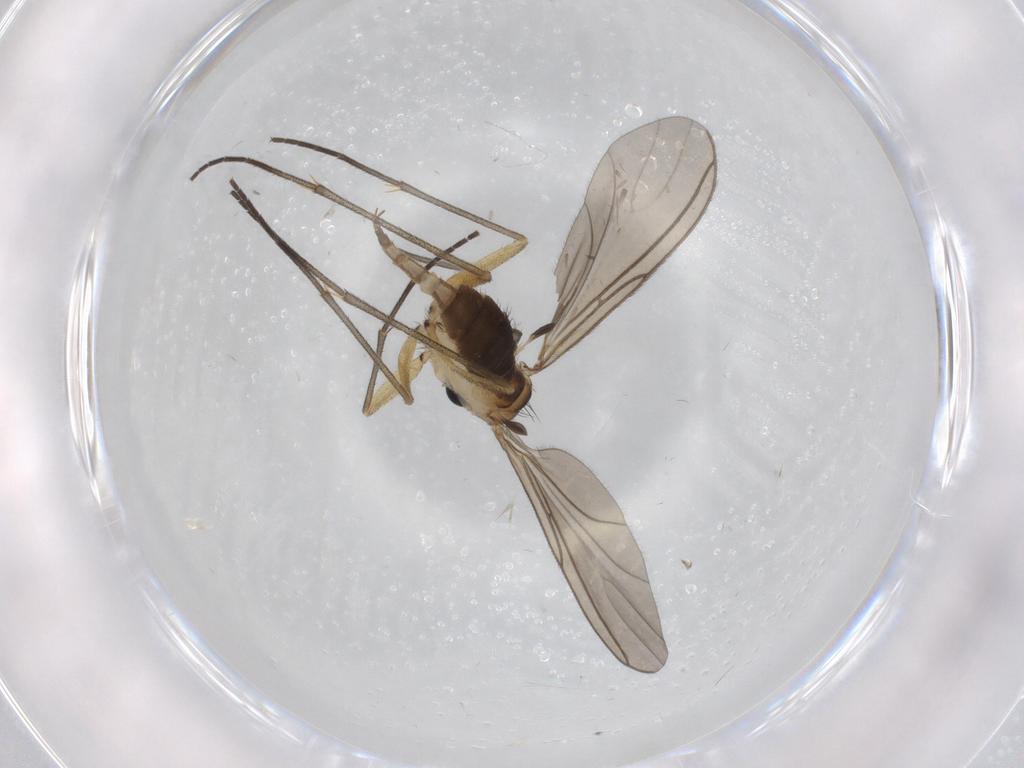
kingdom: Animalia
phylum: Arthropoda
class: Insecta
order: Diptera
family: Sciaridae
